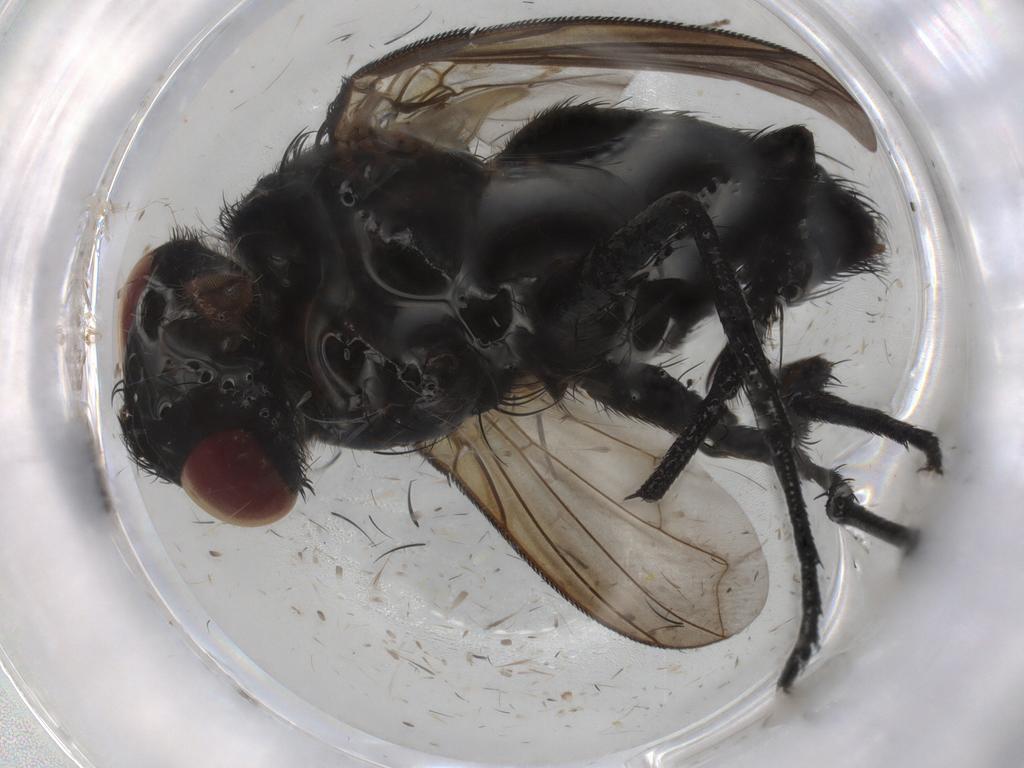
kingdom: Animalia
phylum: Arthropoda
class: Insecta
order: Diptera
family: Tachinidae
